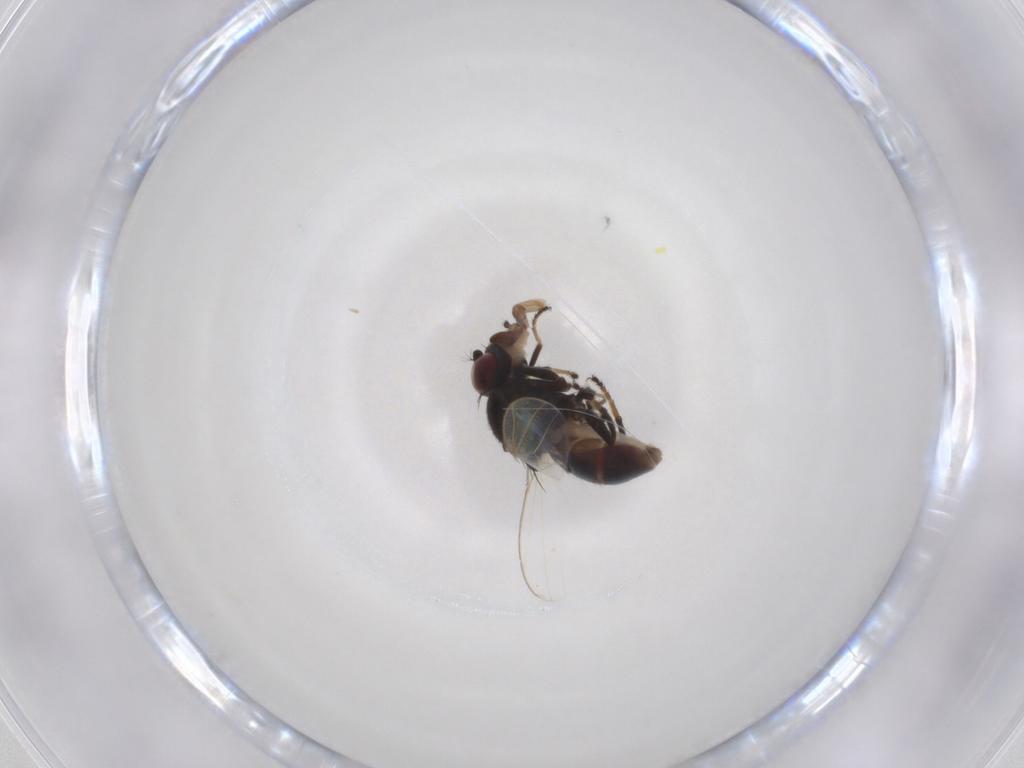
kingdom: Animalia
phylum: Arthropoda
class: Insecta
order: Diptera
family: Ephydridae
